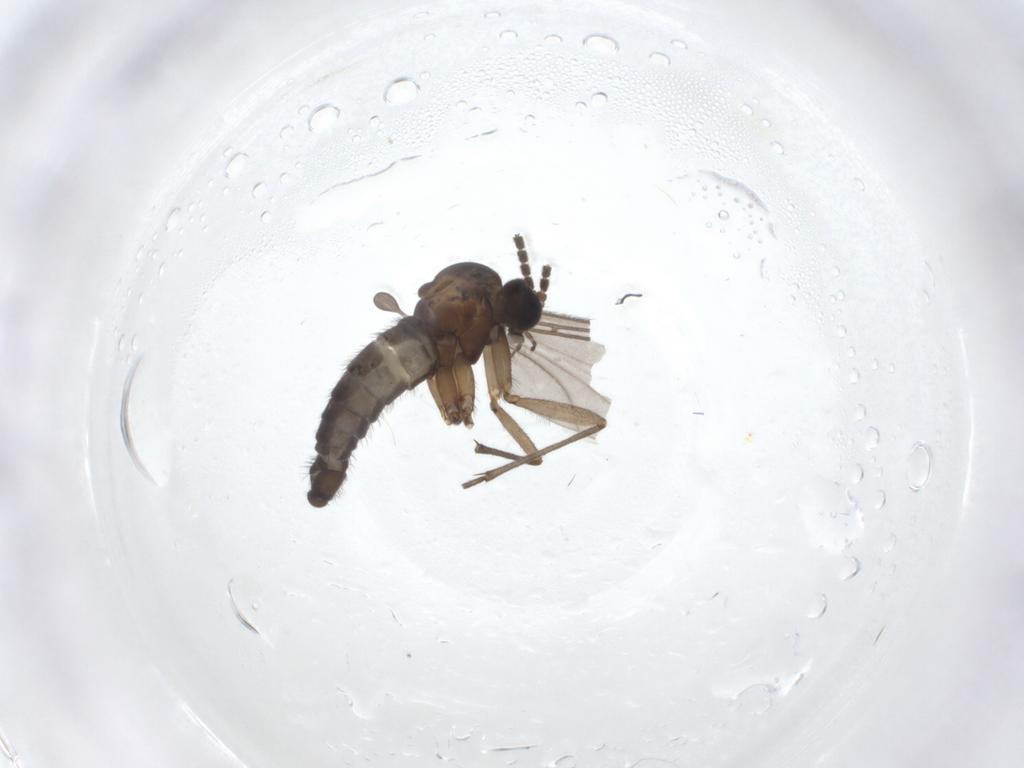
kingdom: Animalia
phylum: Arthropoda
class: Insecta
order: Diptera
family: Sciaridae
